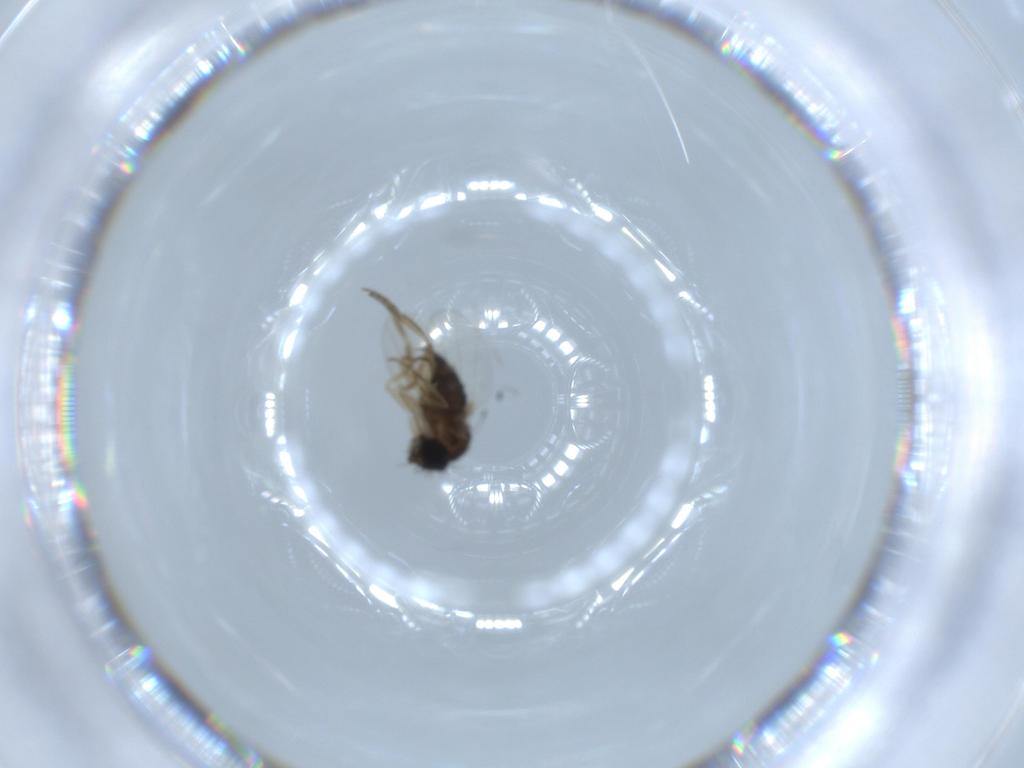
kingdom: Animalia
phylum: Arthropoda
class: Insecta
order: Diptera
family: Phoridae
